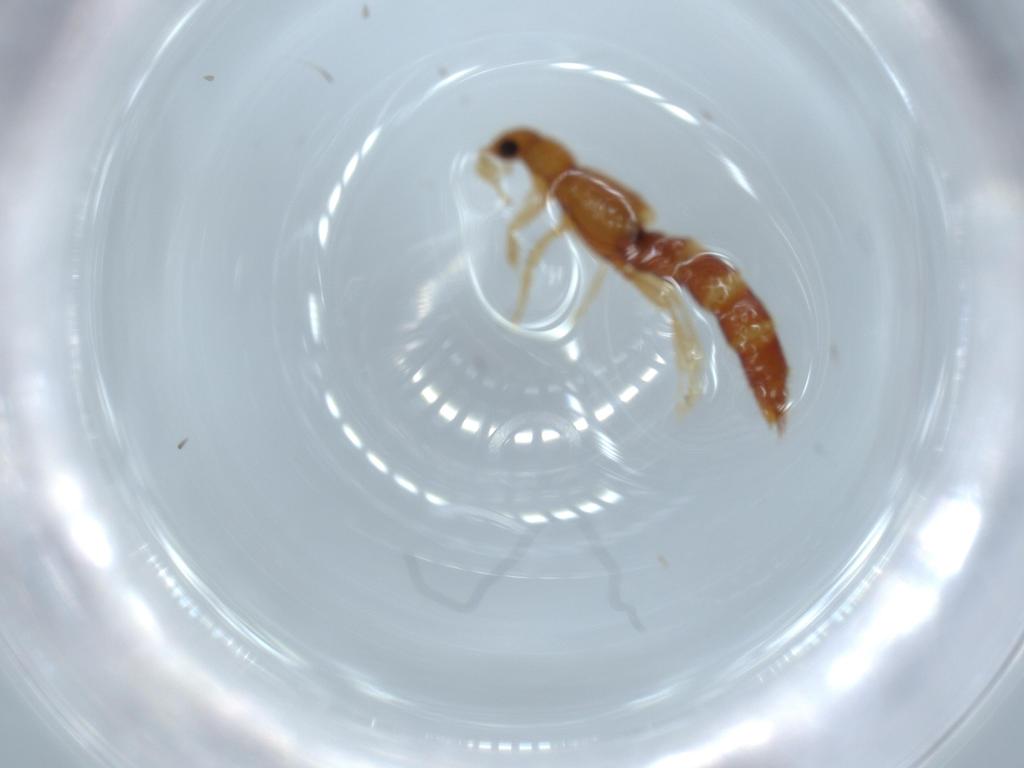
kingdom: Animalia
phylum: Arthropoda
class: Insecta
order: Coleoptera
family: Staphylinidae
